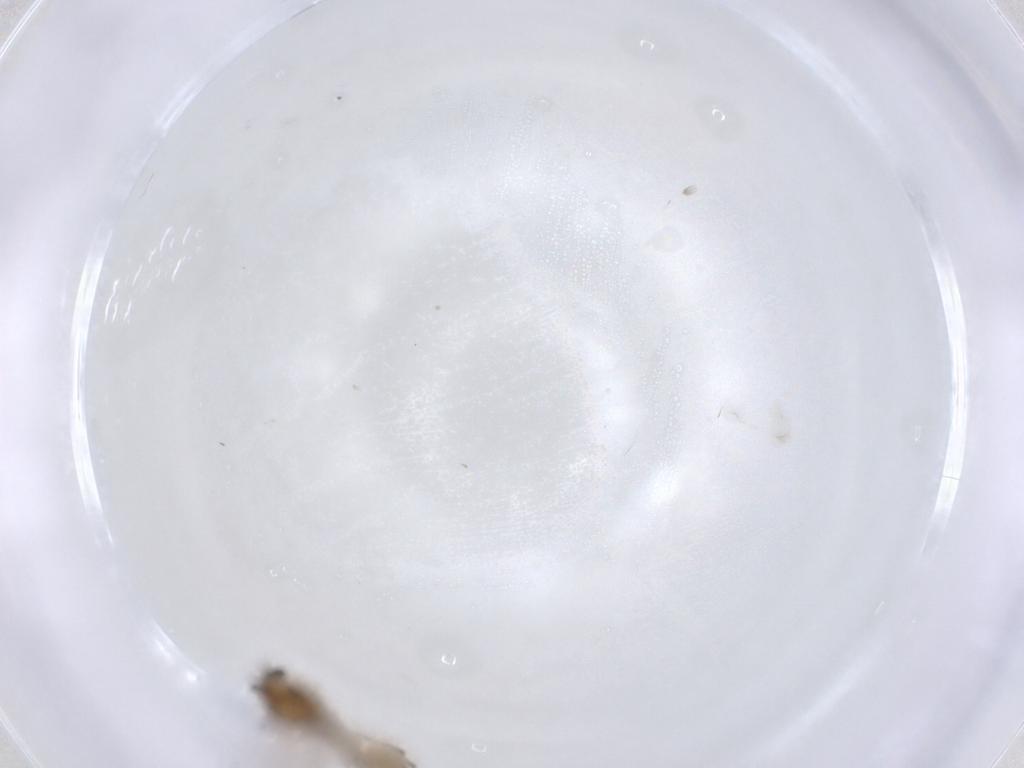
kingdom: Animalia
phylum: Arthropoda
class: Insecta
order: Diptera
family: Chironomidae
